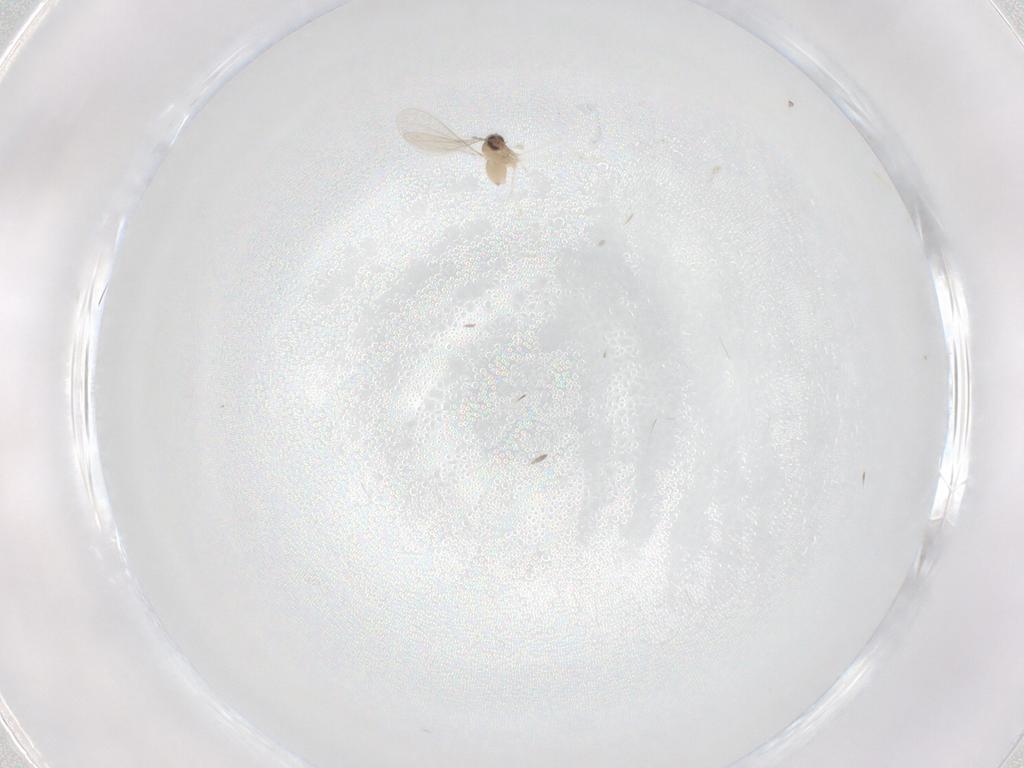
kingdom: Animalia
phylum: Arthropoda
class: Insecta
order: Diptera
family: Cecidomyiidae
